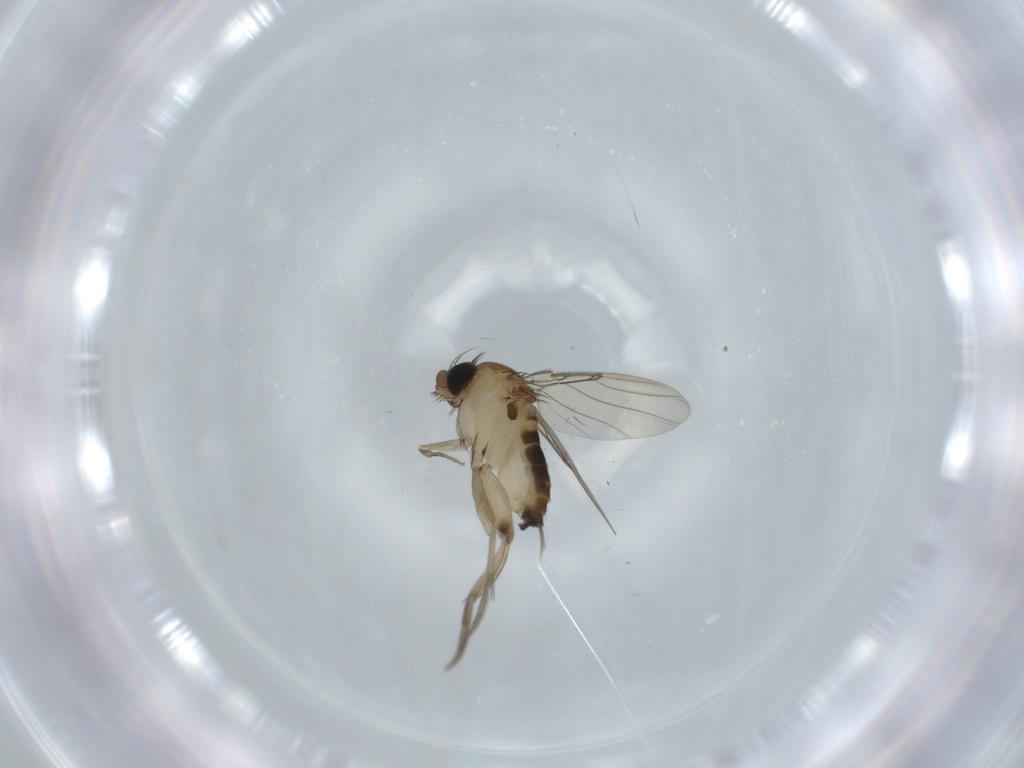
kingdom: Animalia
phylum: Arthropoda
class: Insecta
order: Diptera
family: Phoridae
